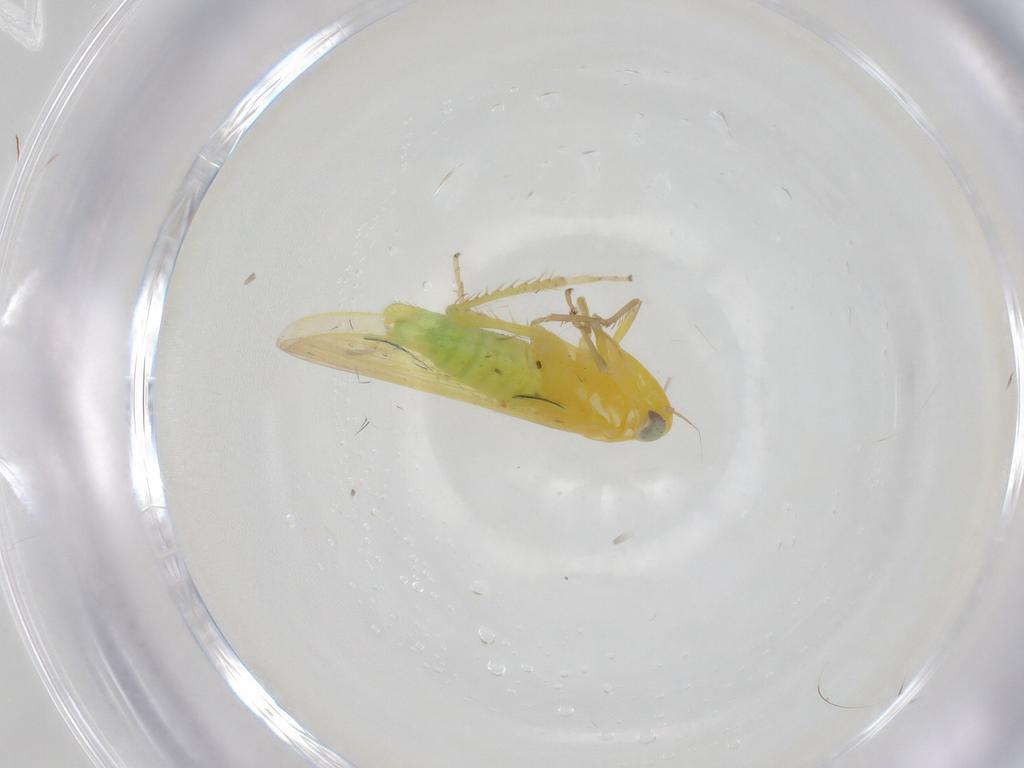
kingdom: Animalia
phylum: Arthropoda
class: Insecta
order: Hemiptera
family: Cicadellidae
